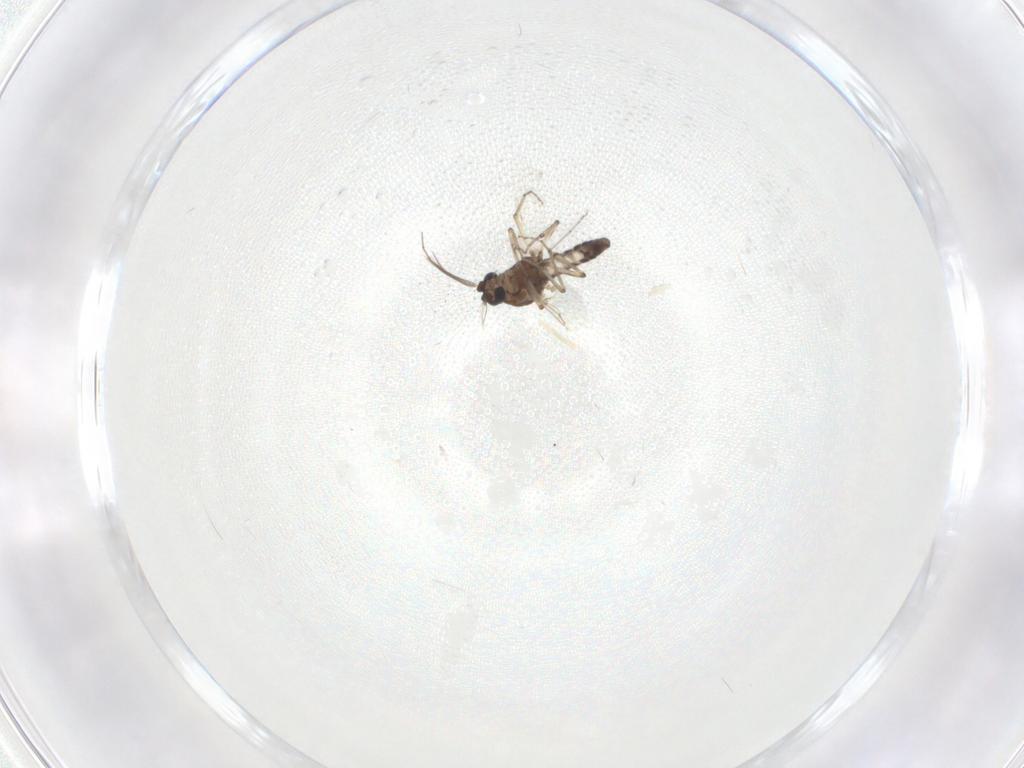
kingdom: Animalia
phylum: Arthropoda
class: Insecta
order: Diptera
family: Ceratopogonidae
